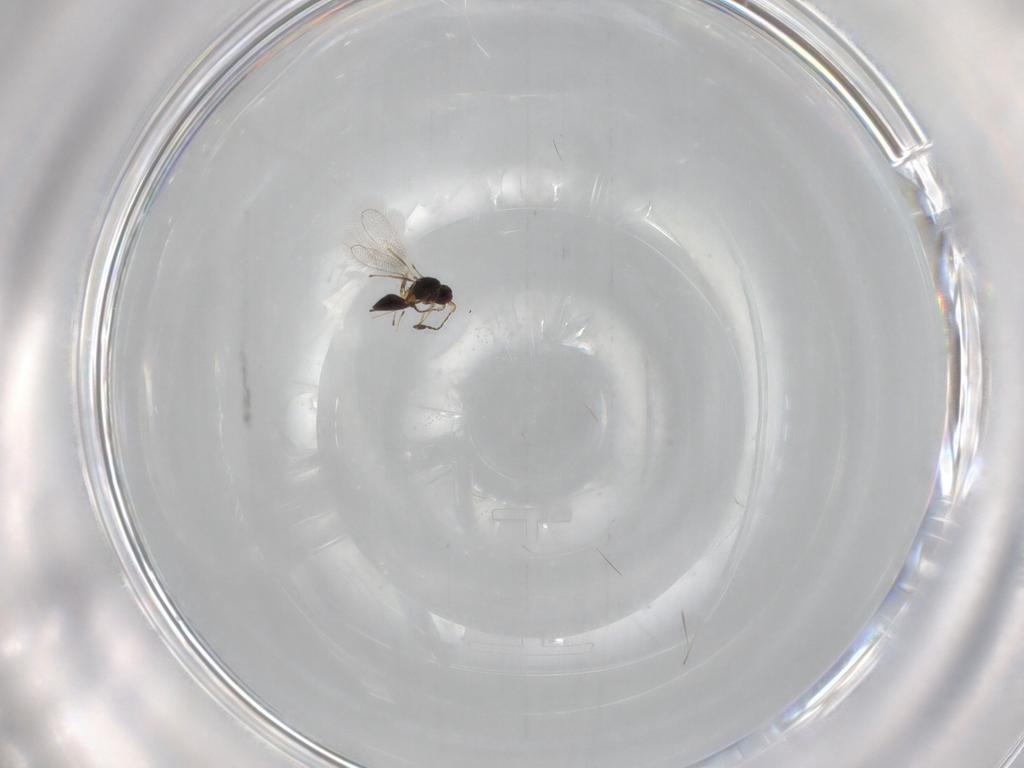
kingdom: Animalia
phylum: Arthropoda
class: Insecta
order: Hymenoptera
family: Mymaridae
